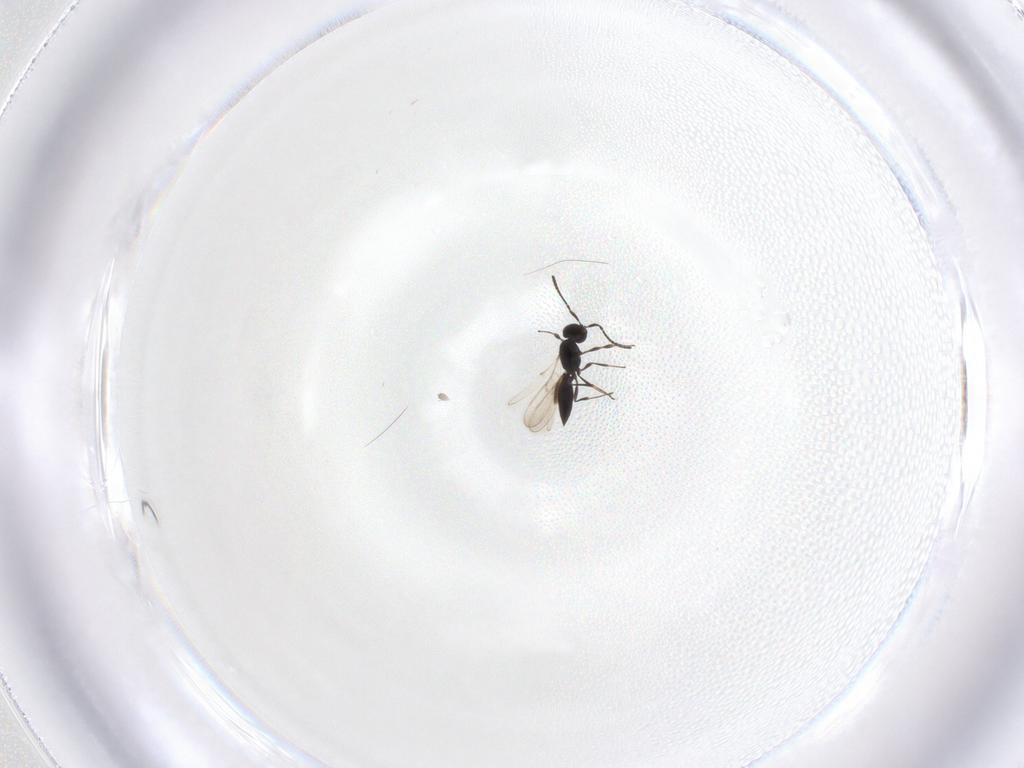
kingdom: Animalia
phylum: Arthropoda
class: Insecta
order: Hymenoptera
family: Scelionidae
